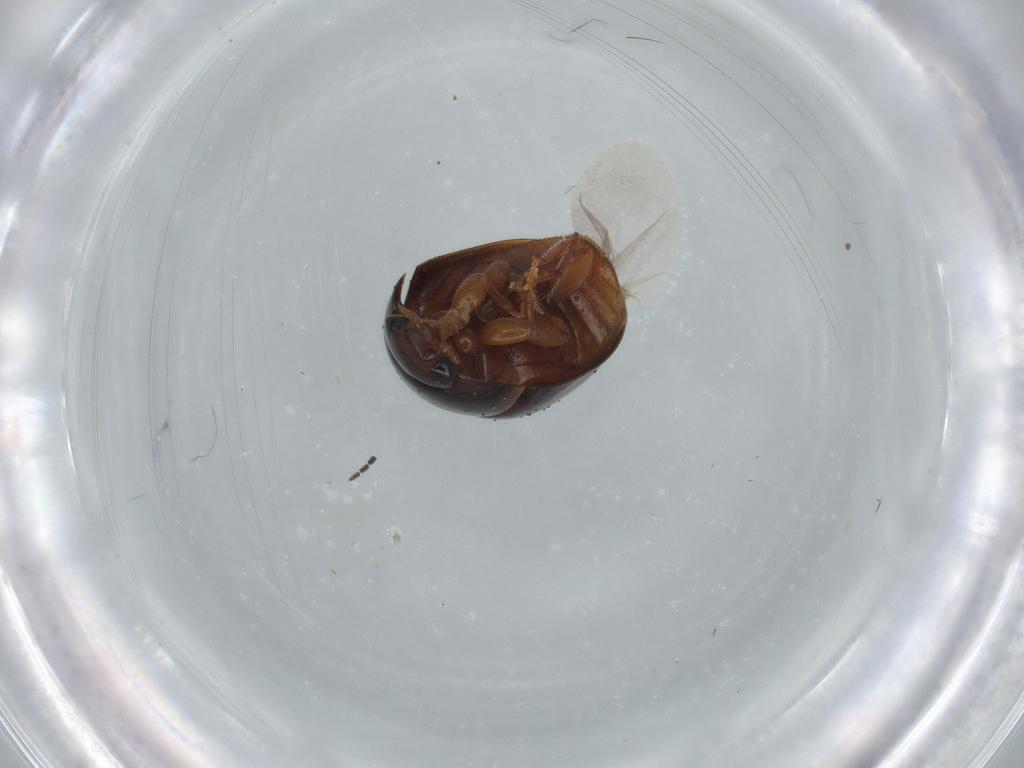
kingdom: Animalia
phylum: Arthropoda
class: Insecta
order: Coleoptera
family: Phalacridae
